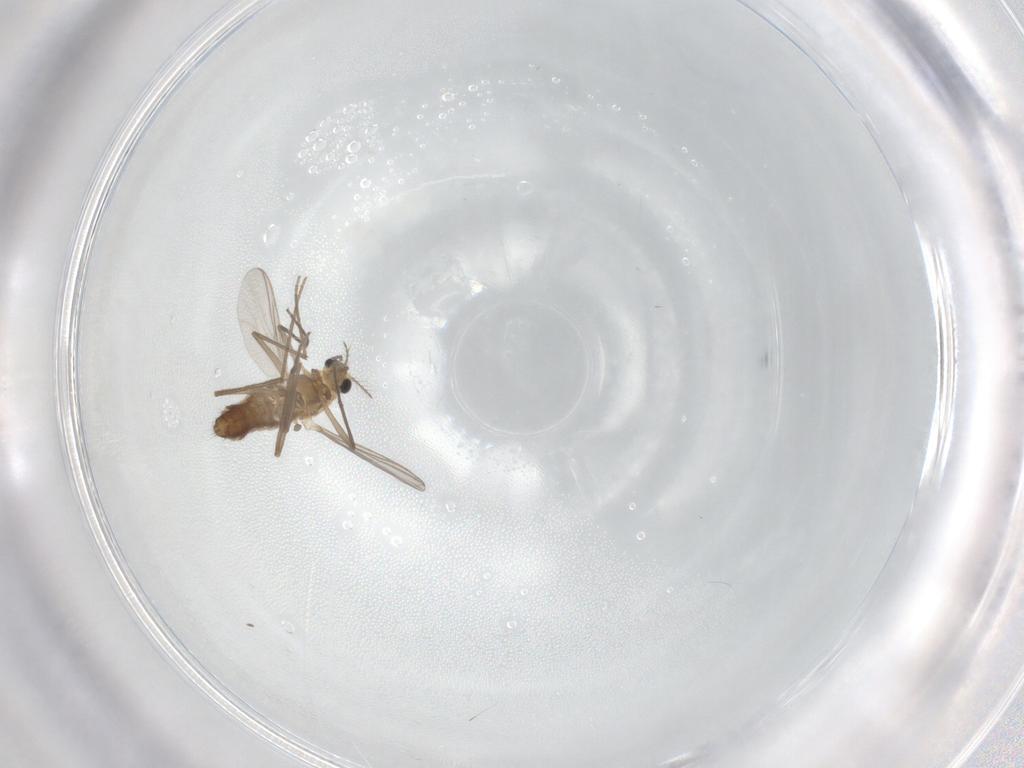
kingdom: Animalia
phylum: Arthropoda
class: Insecta
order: Diptera
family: Chironomidae
